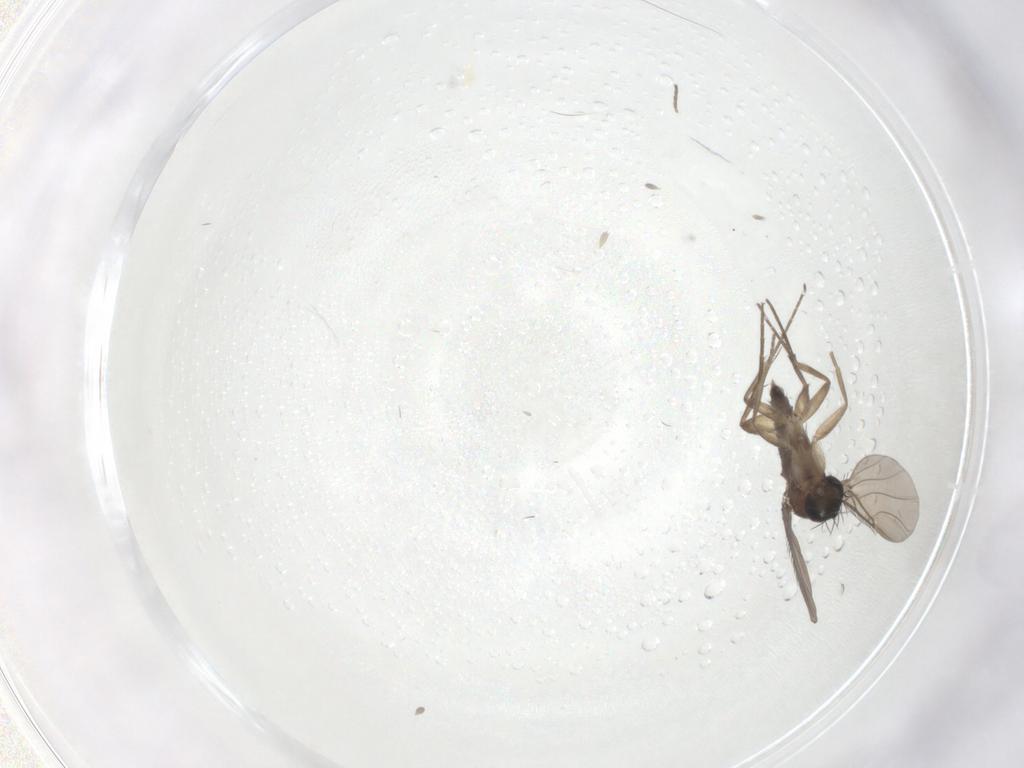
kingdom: Animalia
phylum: Arthropoda
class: Insecta
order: Diptera
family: Phoridae
